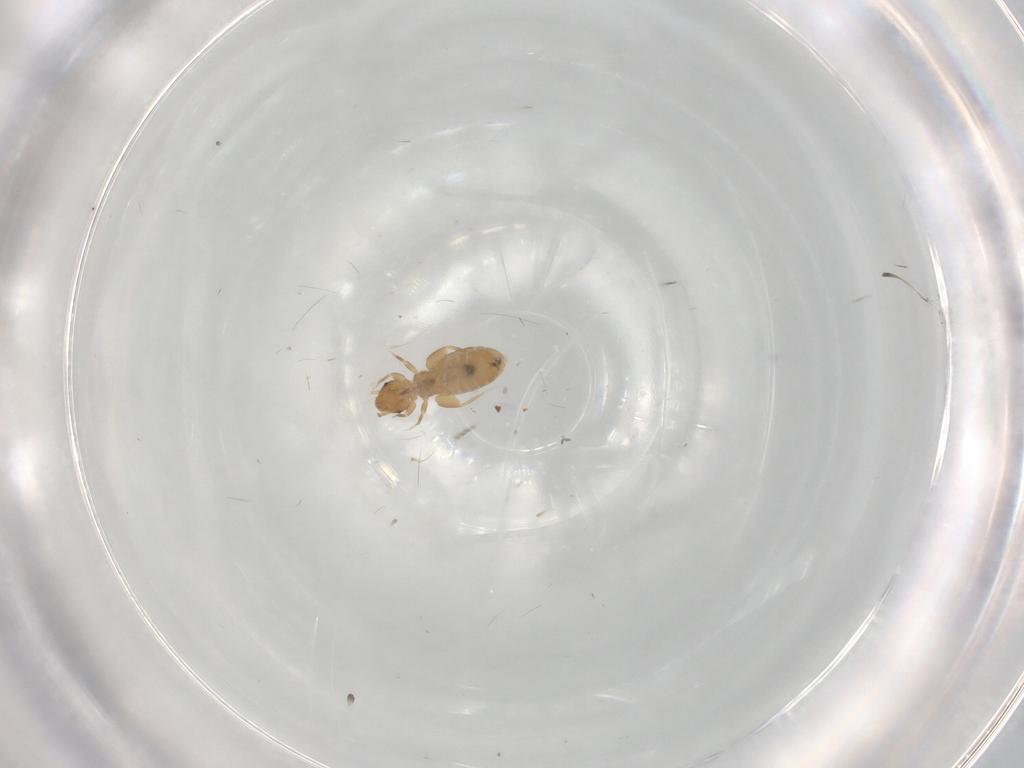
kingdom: Animalia
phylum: Arthropoda
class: Insecta
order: Psocodea
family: Liposcelididae
